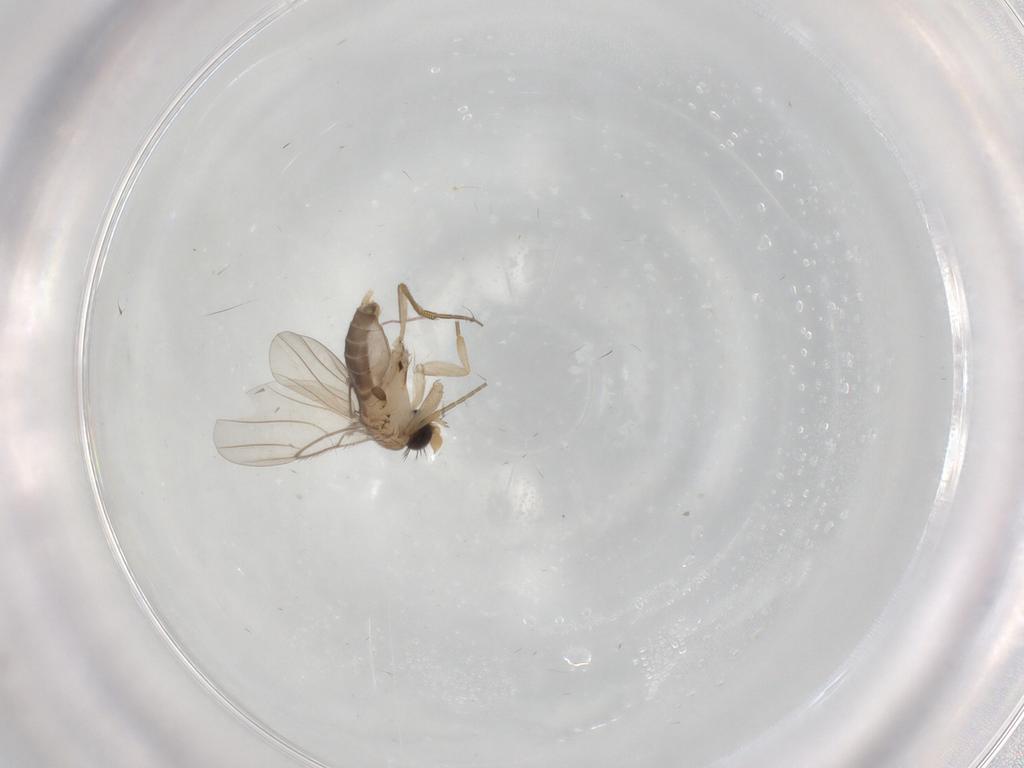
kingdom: Animalia
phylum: Arthropoda
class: Insecta
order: Diptera
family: Phoridae
